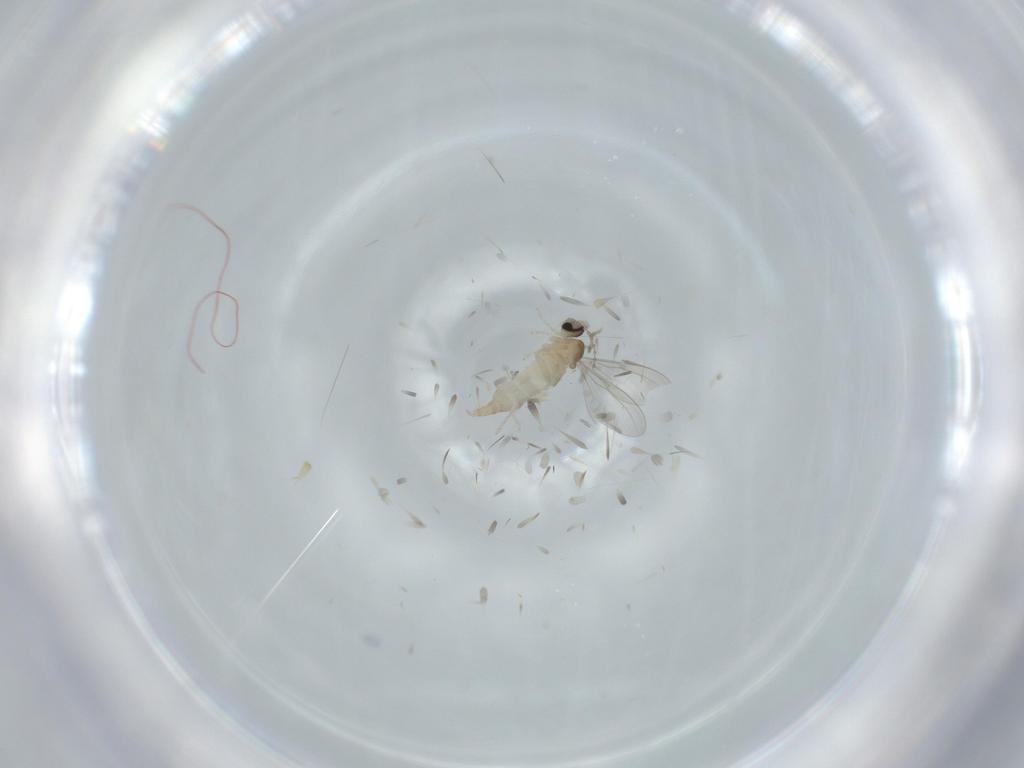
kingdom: Animalia
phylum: Arthropoda
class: Insecta
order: Diptera
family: Cecidomyiidae
